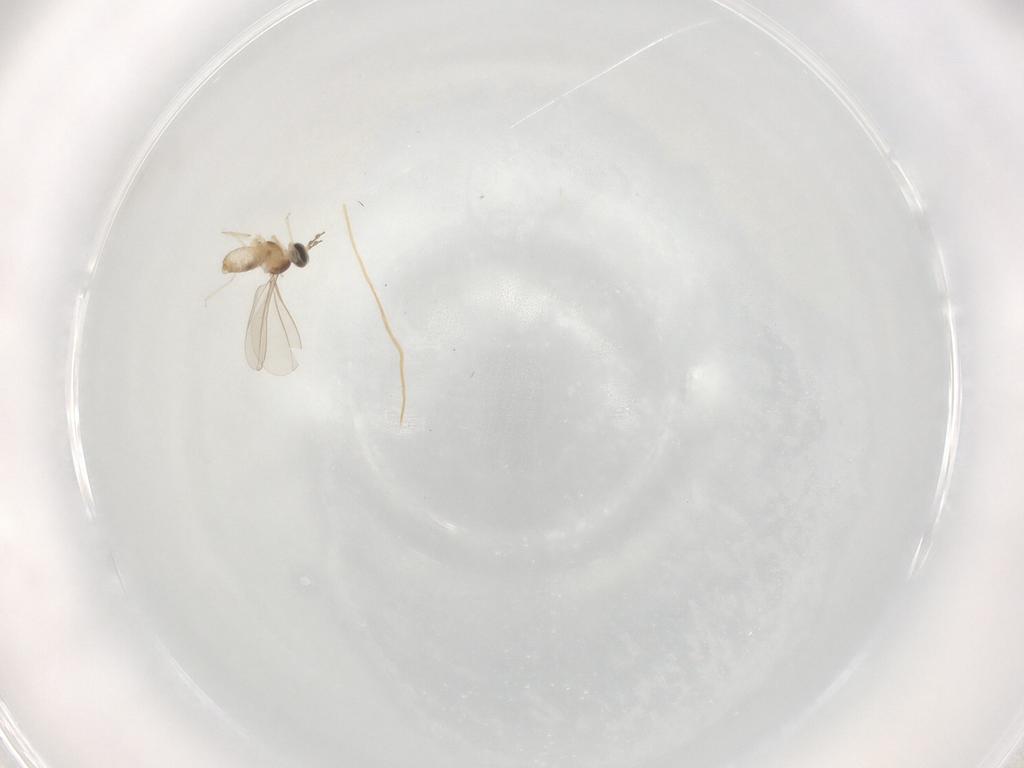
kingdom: Animalia
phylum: Arthropoda
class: Insecta
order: Diptera
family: Cecidomyiidae
